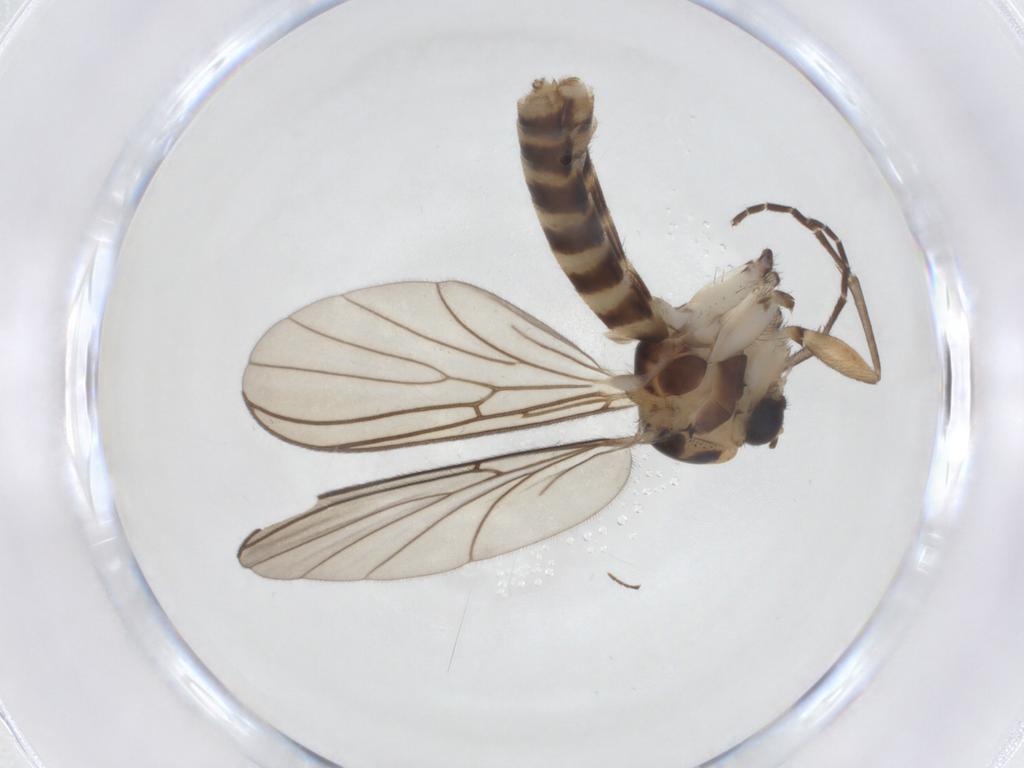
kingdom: Animalia
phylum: Arthropoda
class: Insecta
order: Diptera
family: Mycetophilidae
